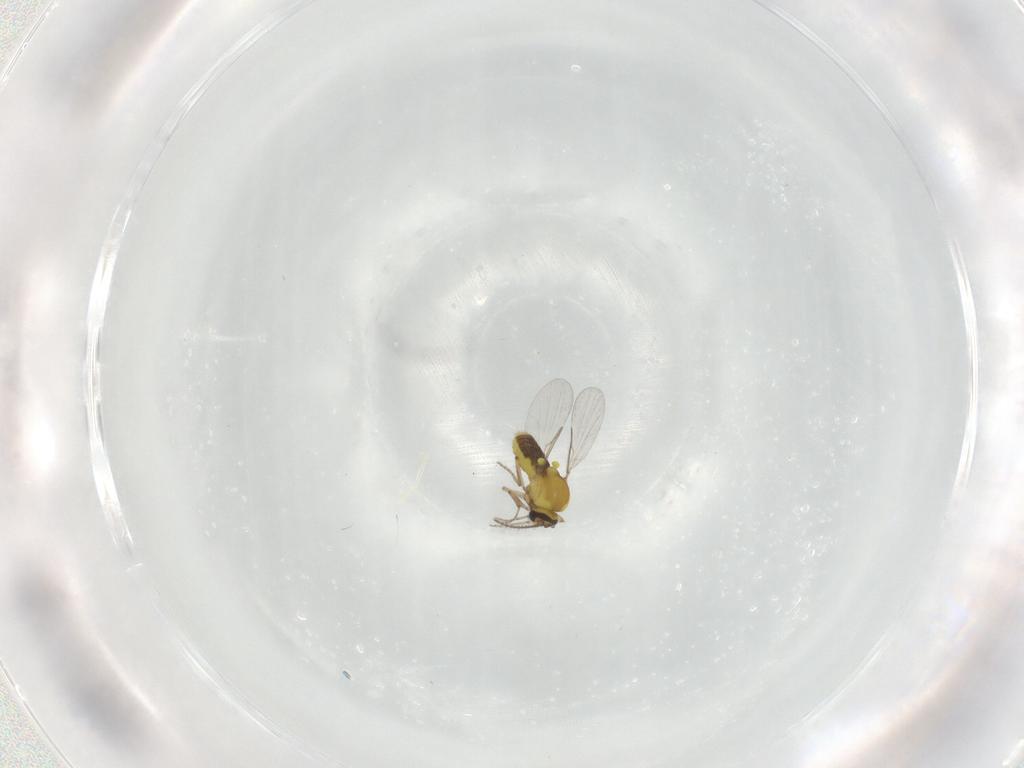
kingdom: Animalia
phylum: Arthropoda
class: Insecta
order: Diptera
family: Ceratopogonidae
